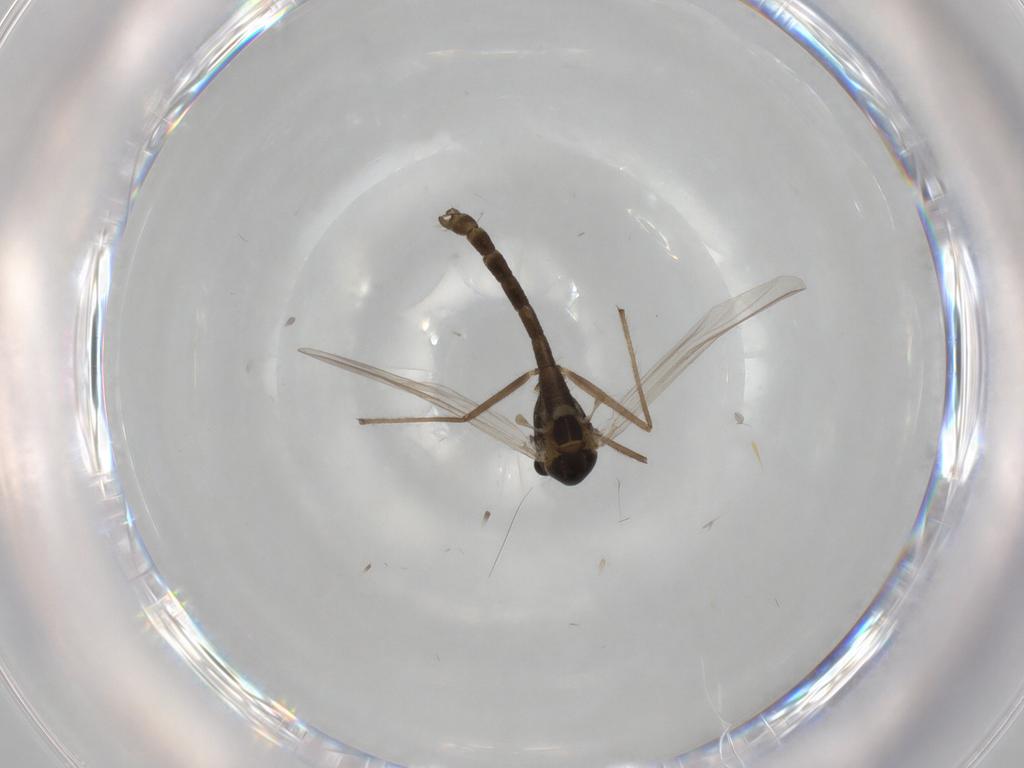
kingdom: Animalia
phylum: Arthropoda
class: Insecta
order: Diptera
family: Chironomidae
